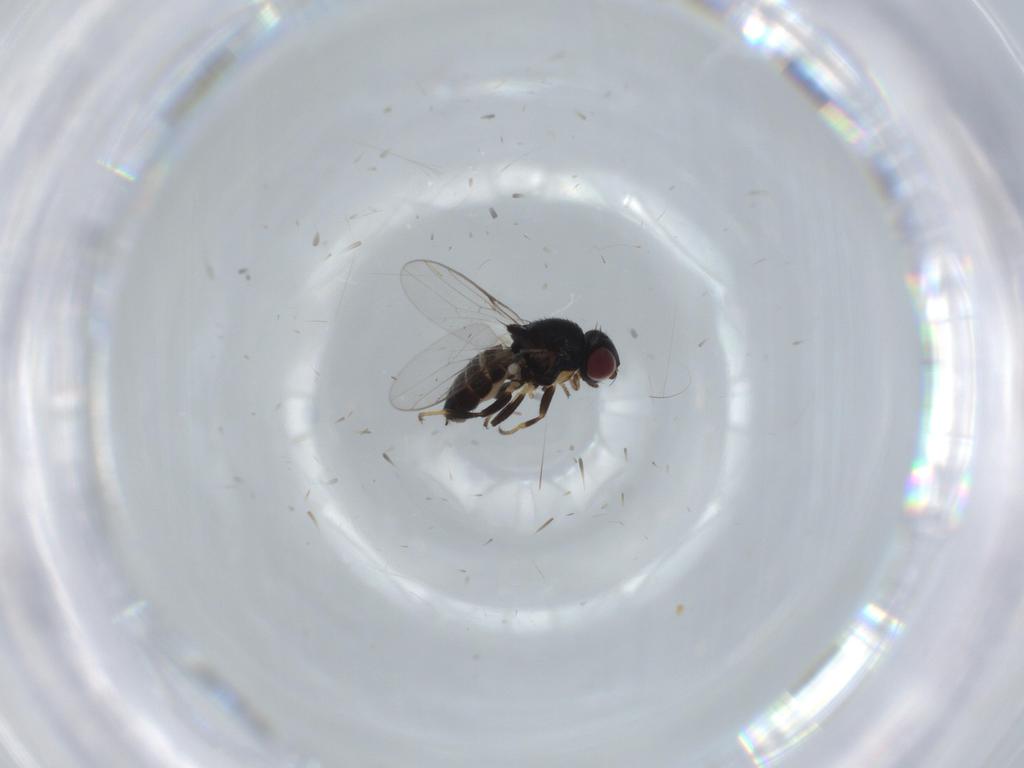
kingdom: Animalia
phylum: Arthropoda
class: Insecta
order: Diptera
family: Chloropidae
